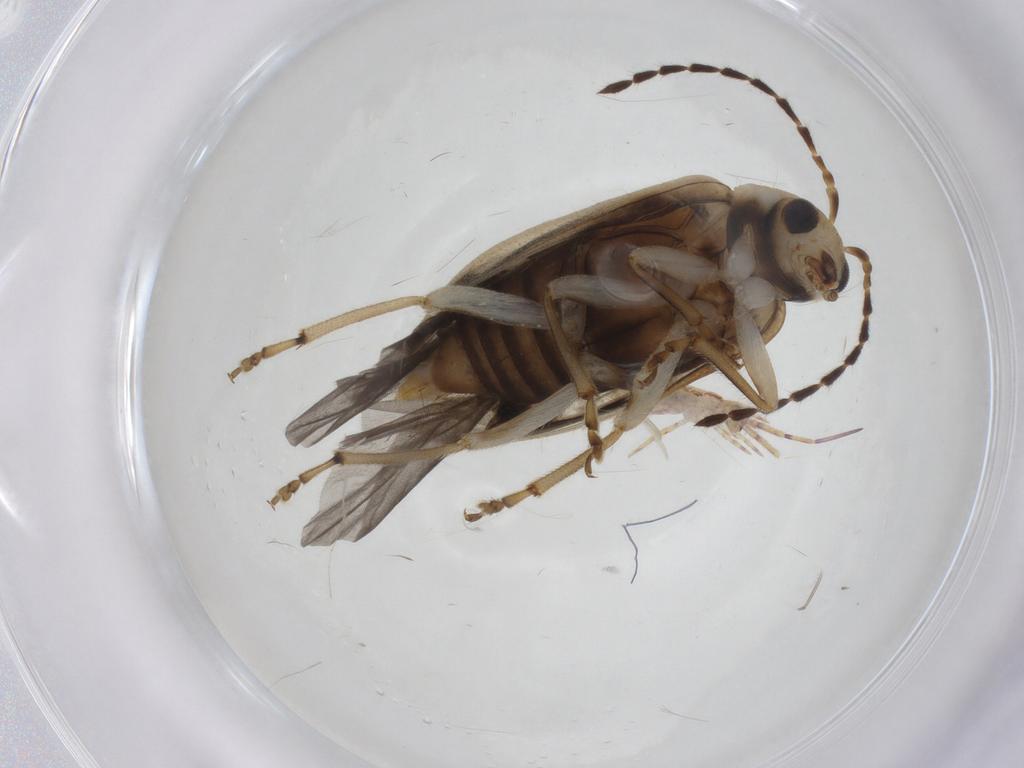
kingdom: Animalia
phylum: Arthropoda
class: Insecta
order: Coleoptera
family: Chrysomelidae
